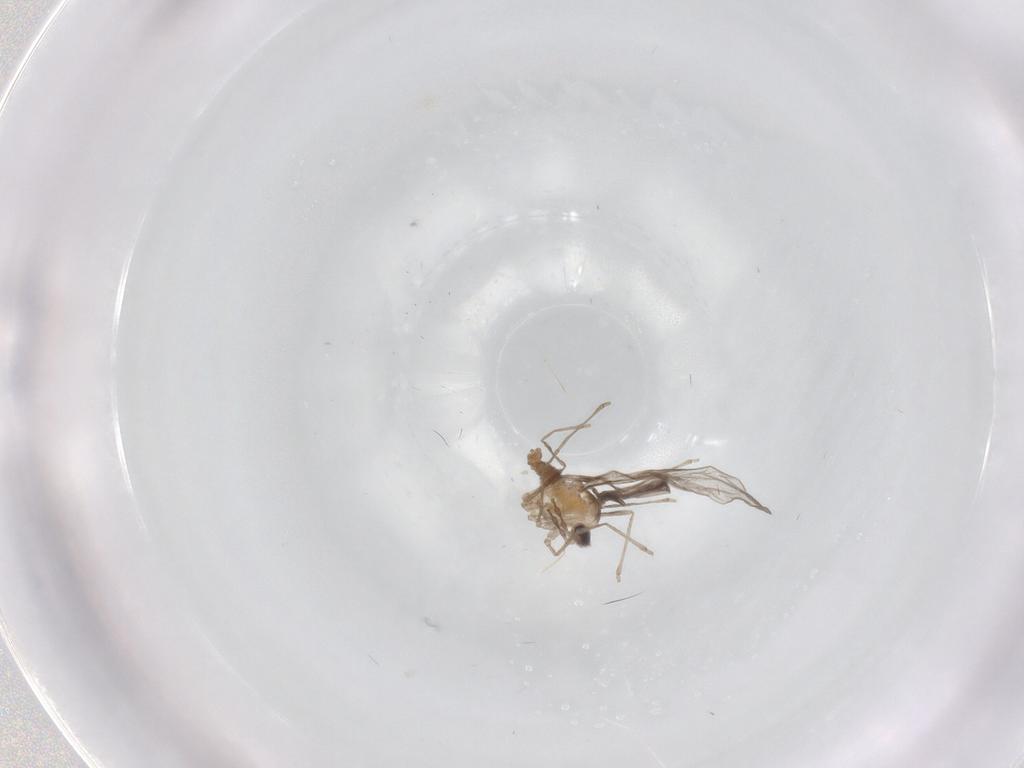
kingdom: Animalia
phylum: Arthropoda
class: Insecta
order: Diptera
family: Cecidomyiidae
